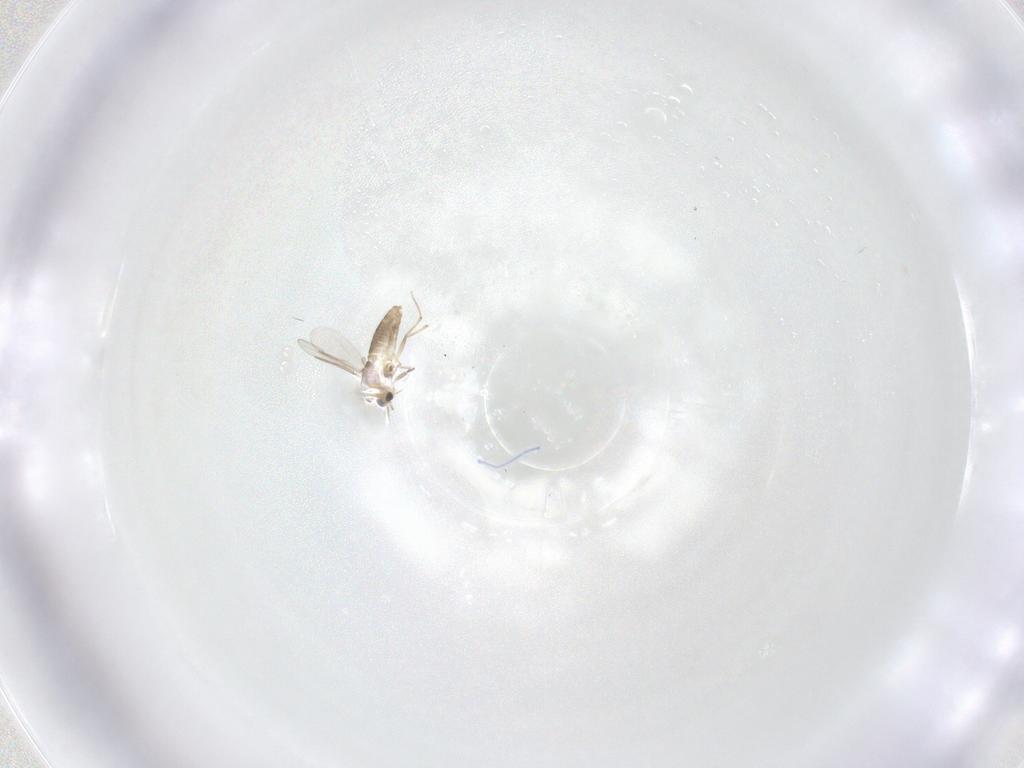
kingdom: Animalia
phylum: Arthropoda
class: Insecta
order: Diptera
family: Chironomidae
